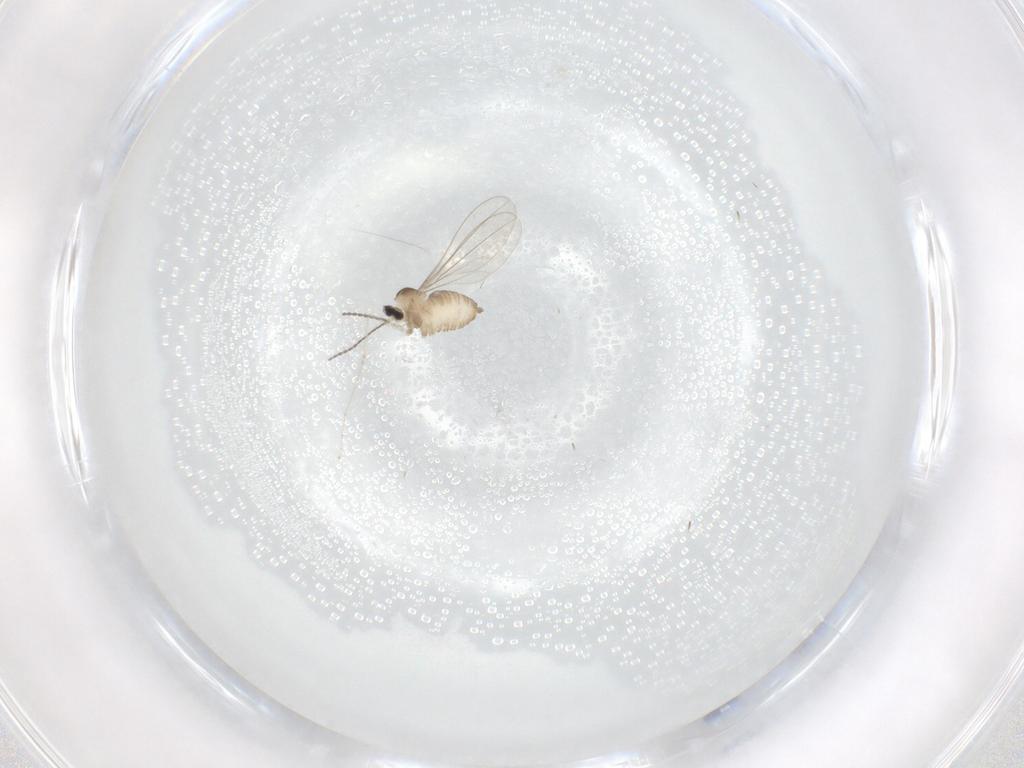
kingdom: Animalia
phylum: Arthropoda
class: Insecta
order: Diptera
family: Cecidomyiidae
